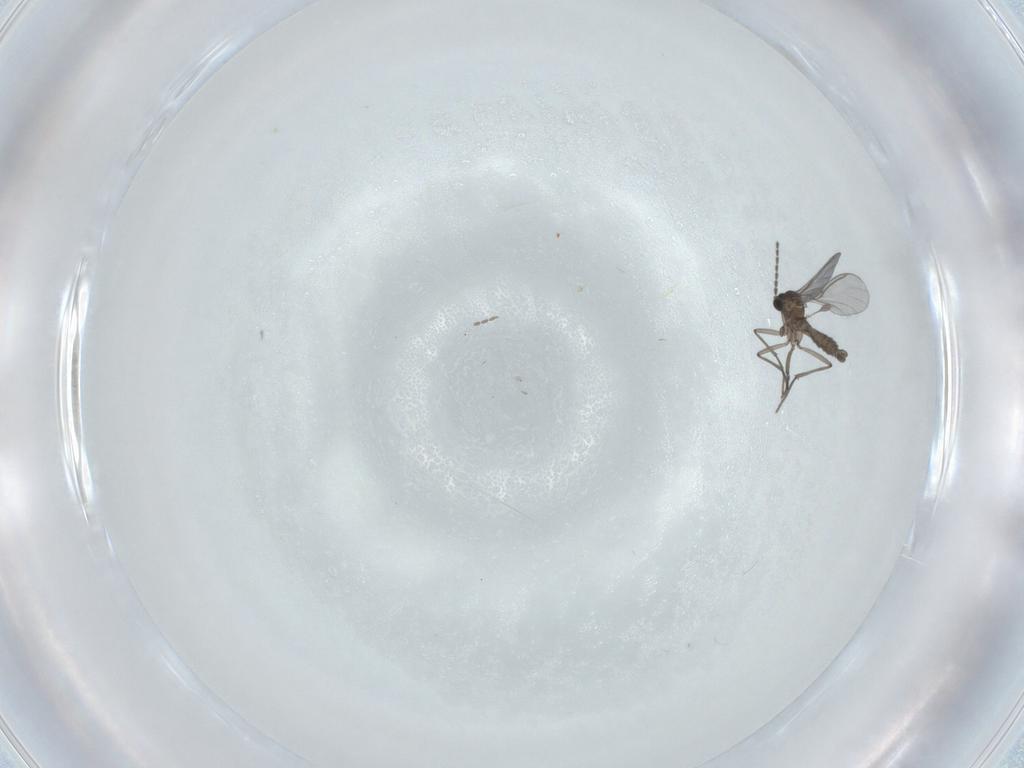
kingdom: Animalia
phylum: Arthropoda
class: Insecta
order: Diptera
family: Sciaridae
